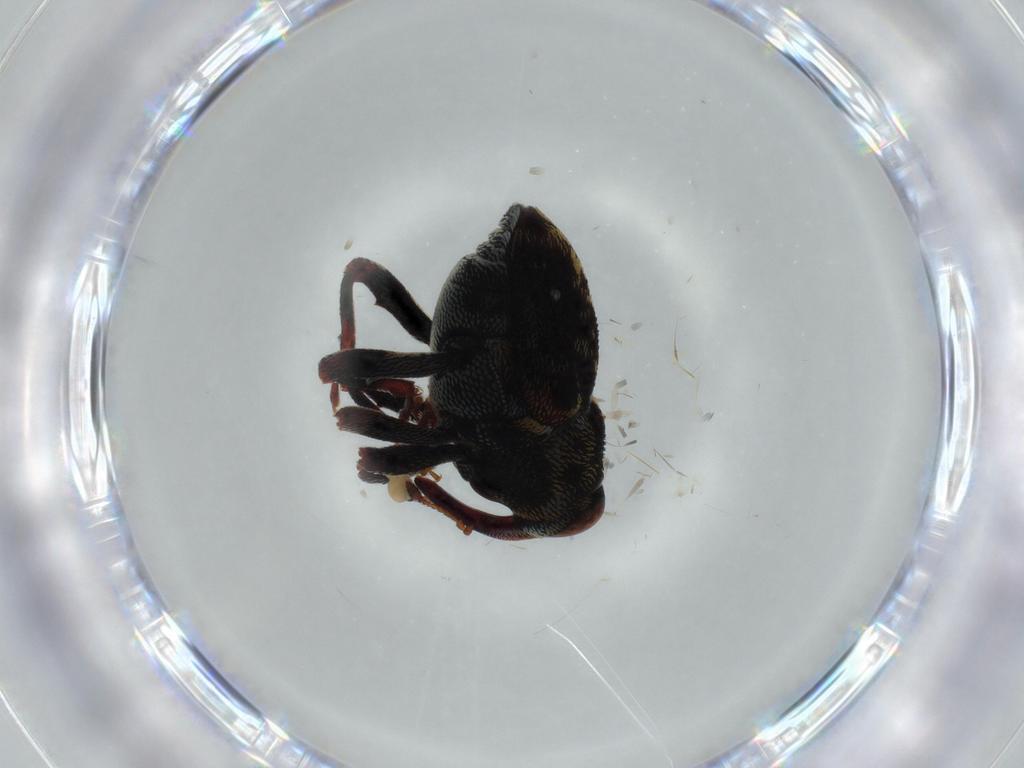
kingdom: Animalia
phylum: Arthropoda
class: Insecta
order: Coleoptera
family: Curculionidae
